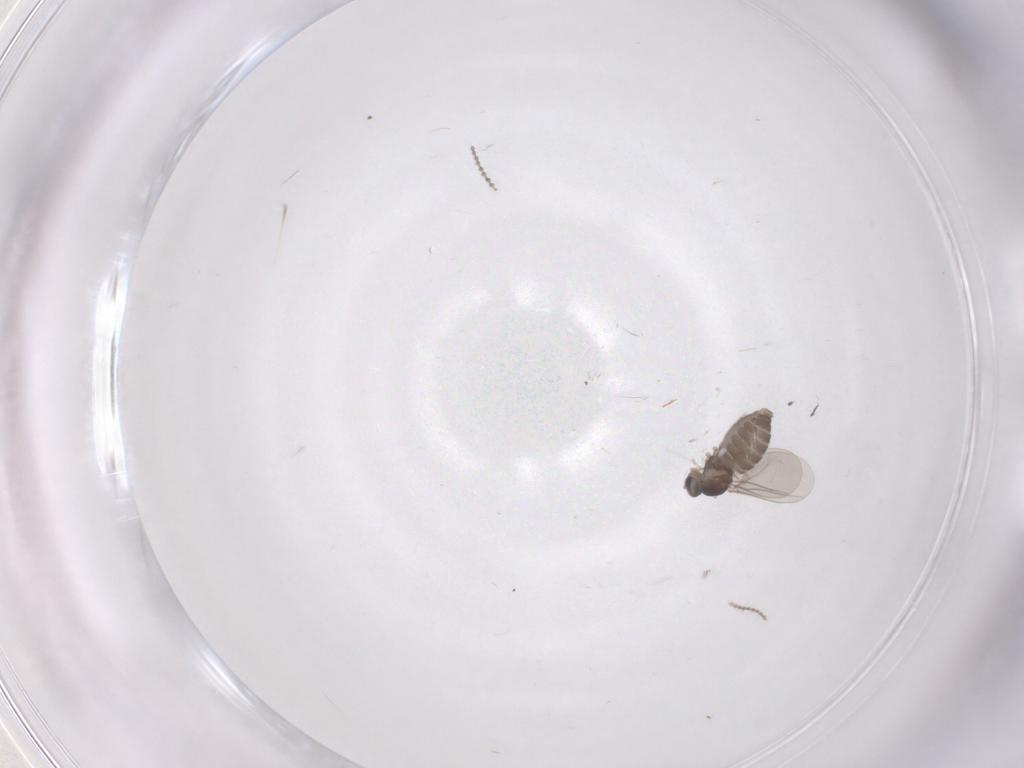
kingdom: Animalia
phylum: Arthropoda
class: Insecta
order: Diptera
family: Cecidomyiidae
